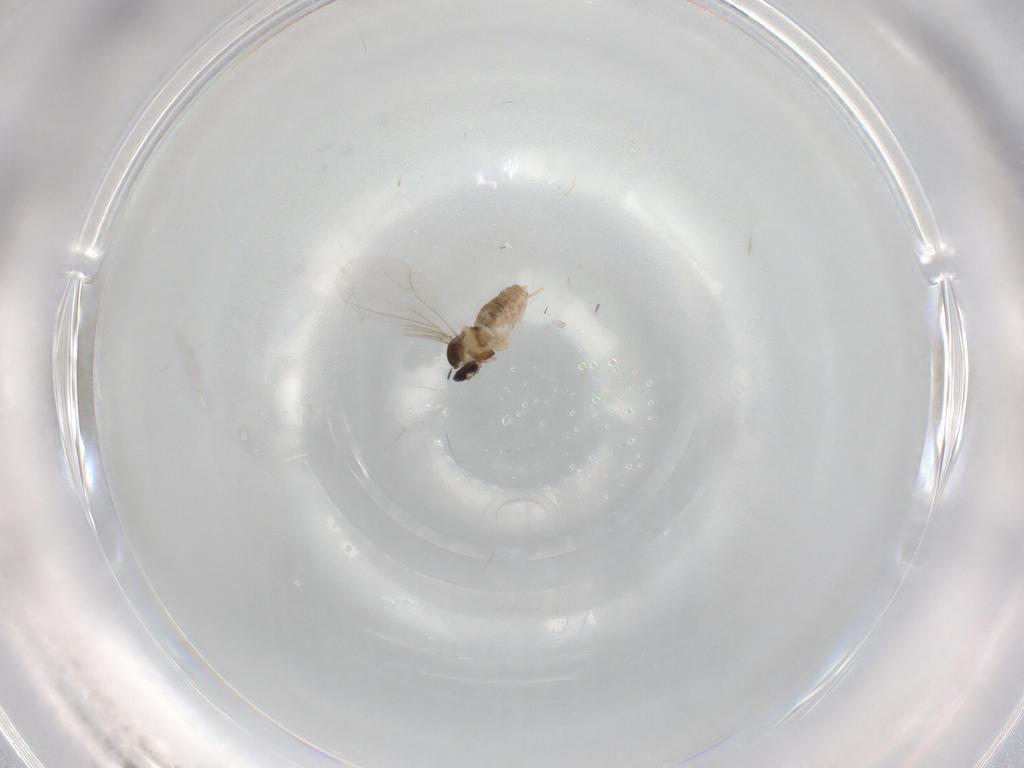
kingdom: Animalia
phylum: Arthropoda
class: Insecta
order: Diptera
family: Cecidomyiidae
